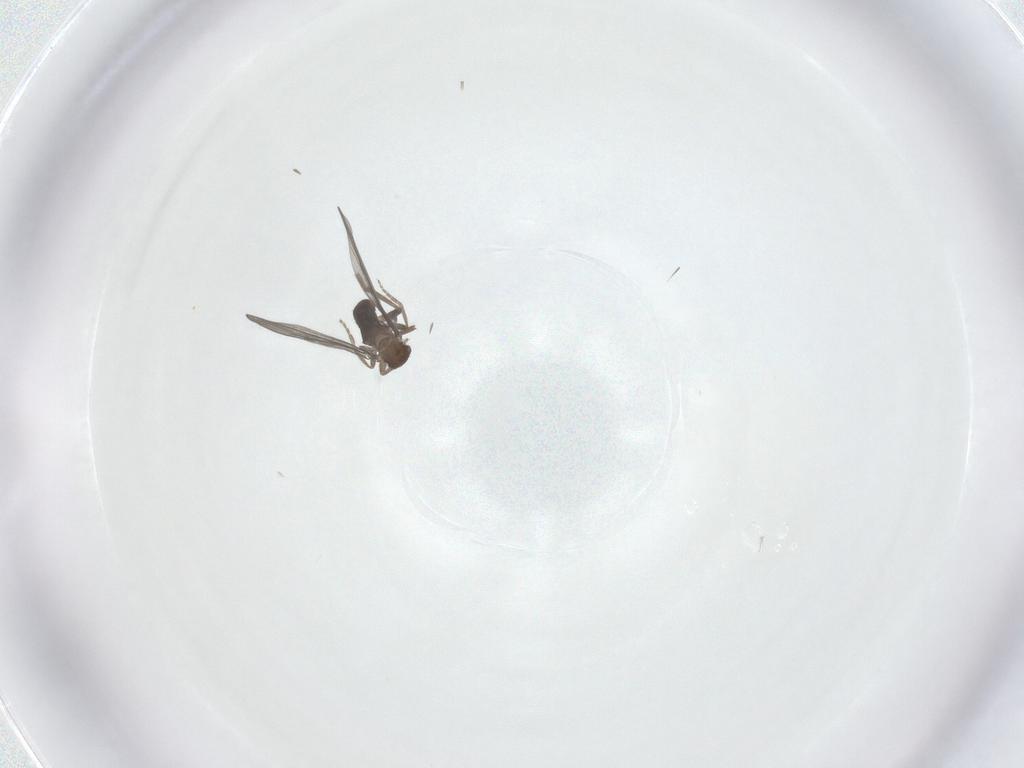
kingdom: Animalia
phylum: Arthropoda
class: Insecta
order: Diptera
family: Phoridae
